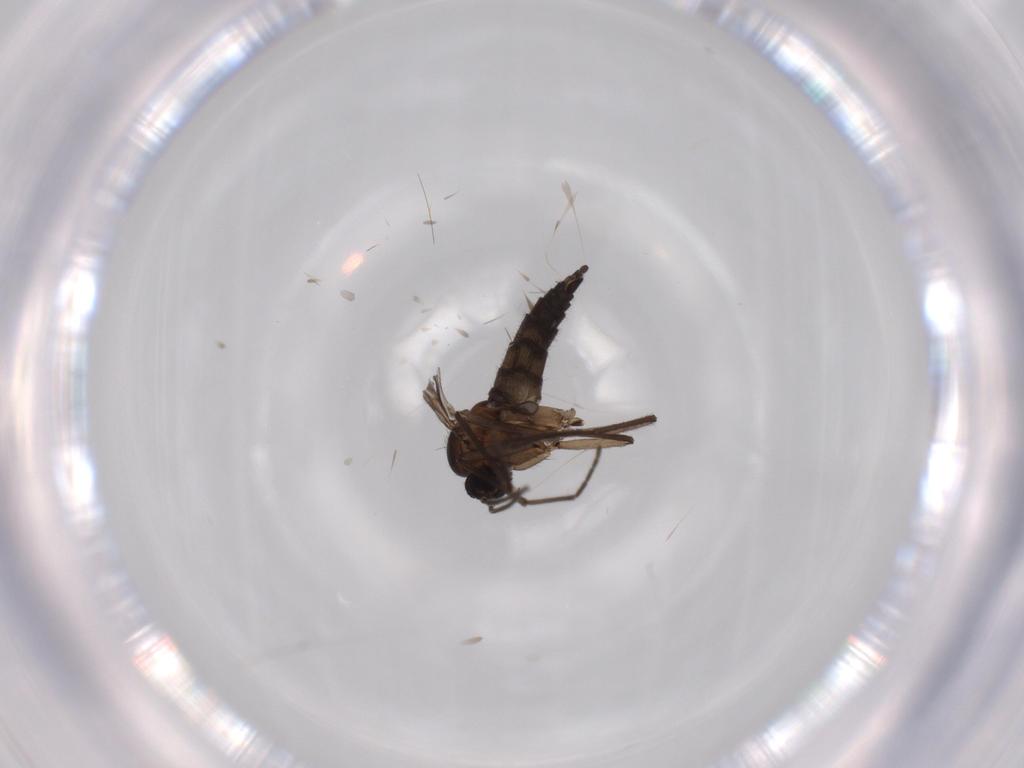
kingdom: Animalia
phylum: Arthropoda
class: Insecta
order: Diptera
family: Sciaridae
